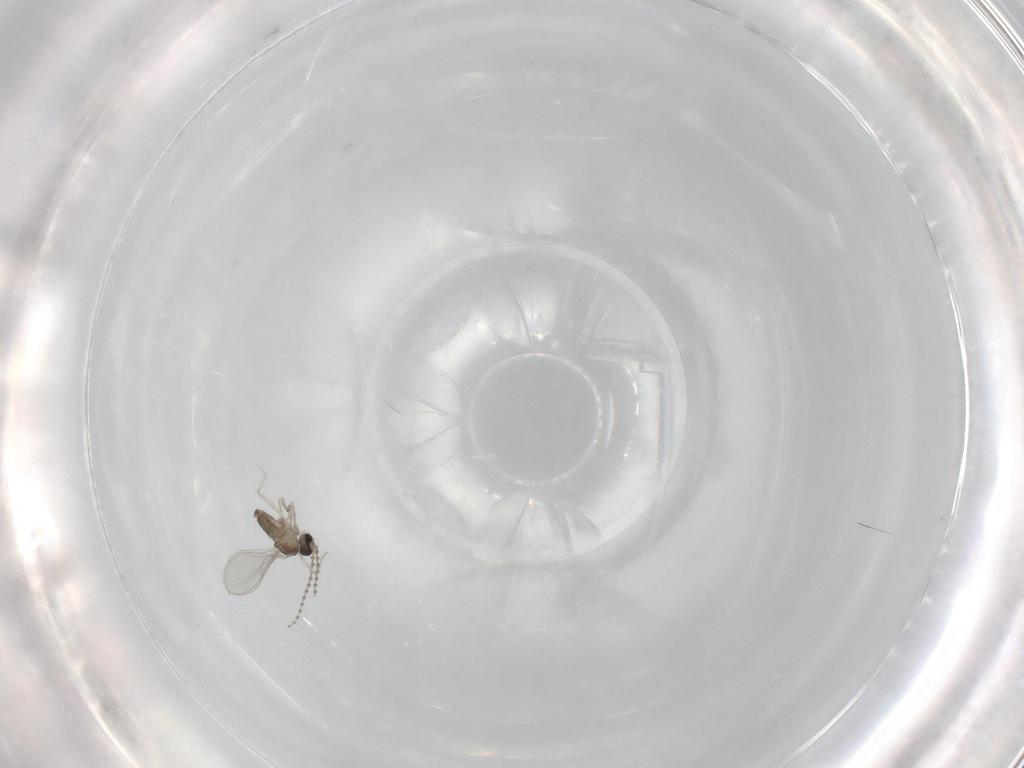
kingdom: Animalia
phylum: Arthropoda
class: Insecta
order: Diptera
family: Cecidomyiidae
